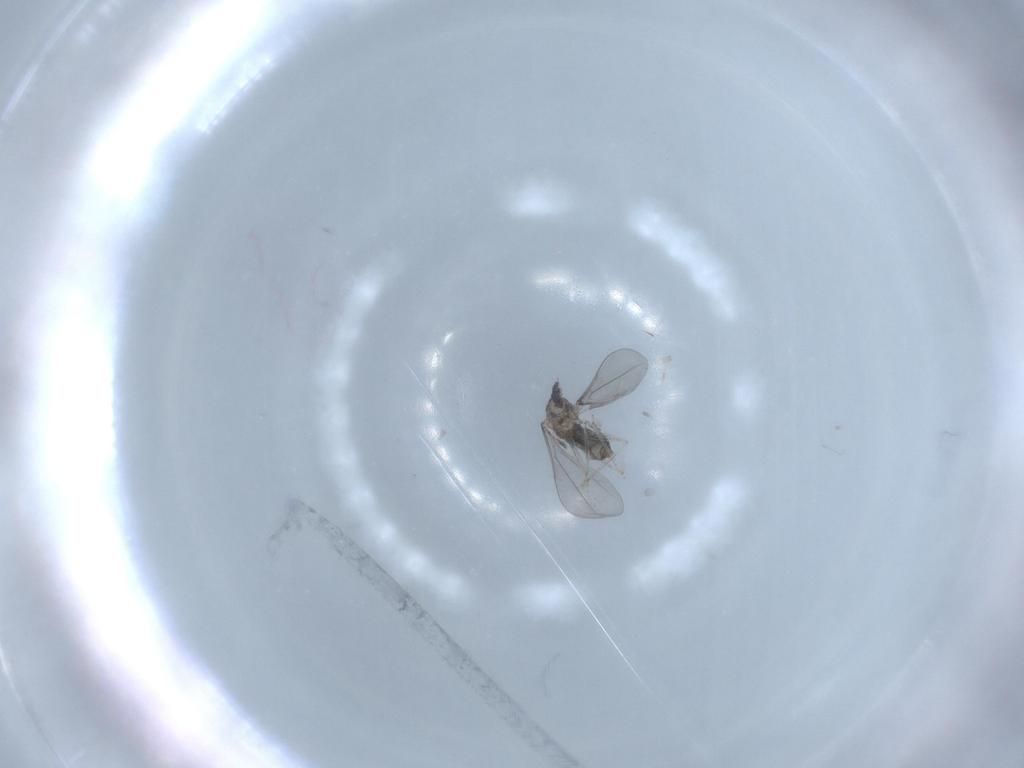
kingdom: Animalia
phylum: Arthropoda
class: Insecta
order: Diptera
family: Cecidomyiidae
